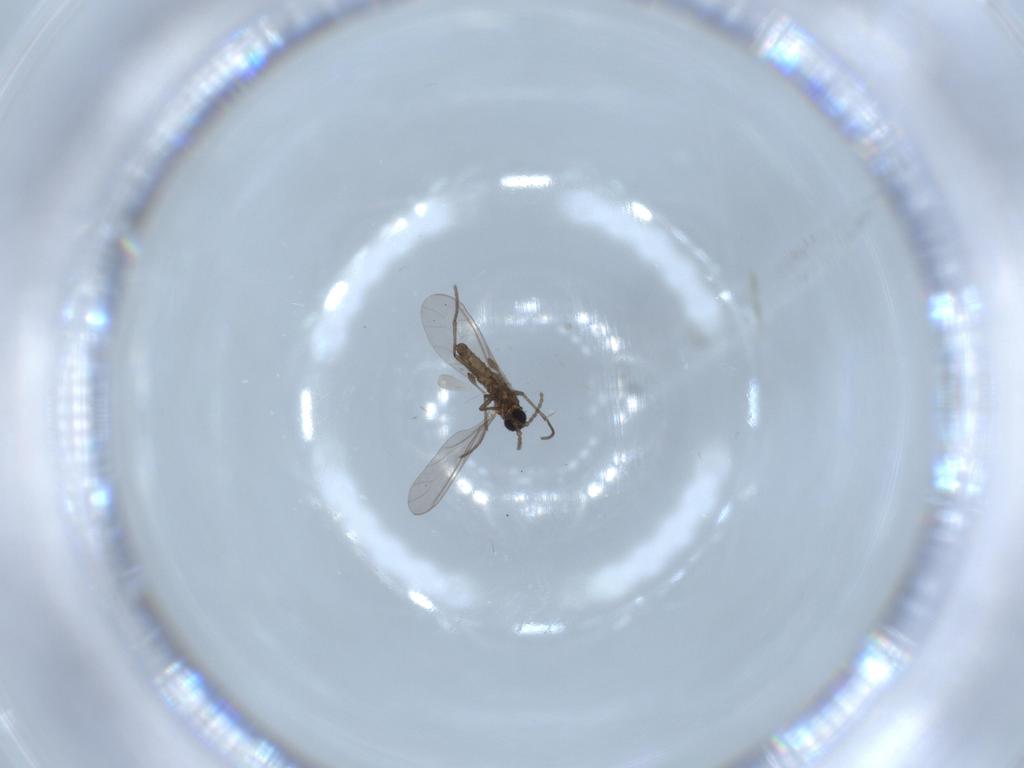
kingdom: Animalia
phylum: Arthropoda
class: Insecta
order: Diptera
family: Sciaridae
